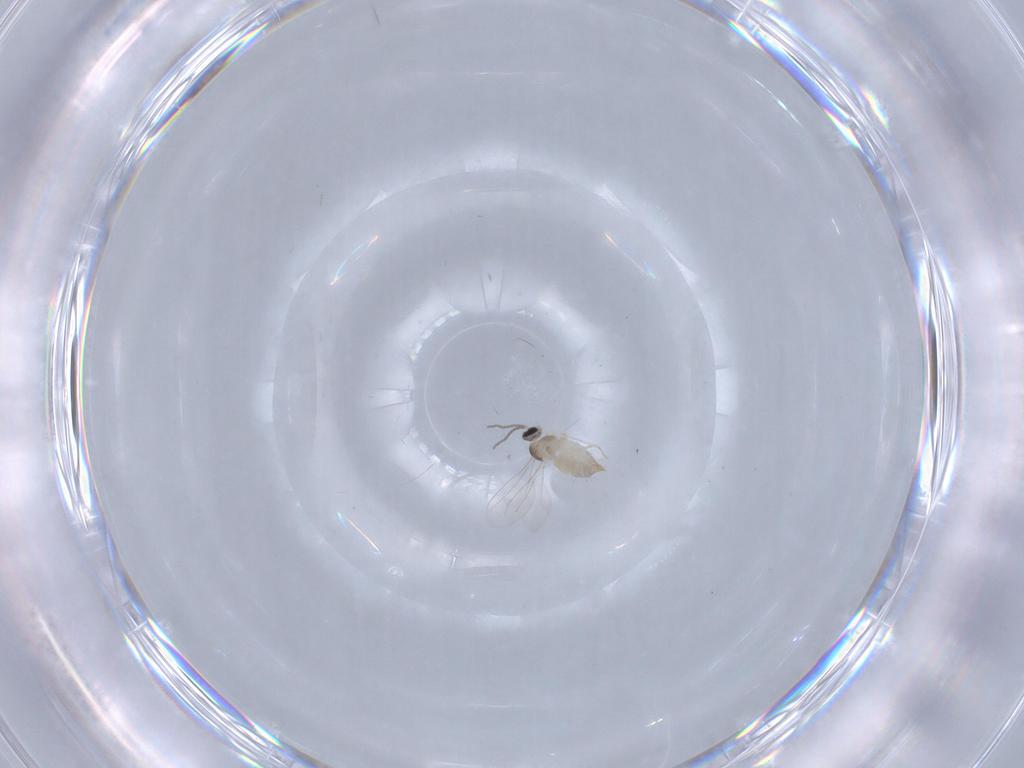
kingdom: Animalia
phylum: Arthropoda
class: Insecta
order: Diptera
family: Cecidomyiidae
